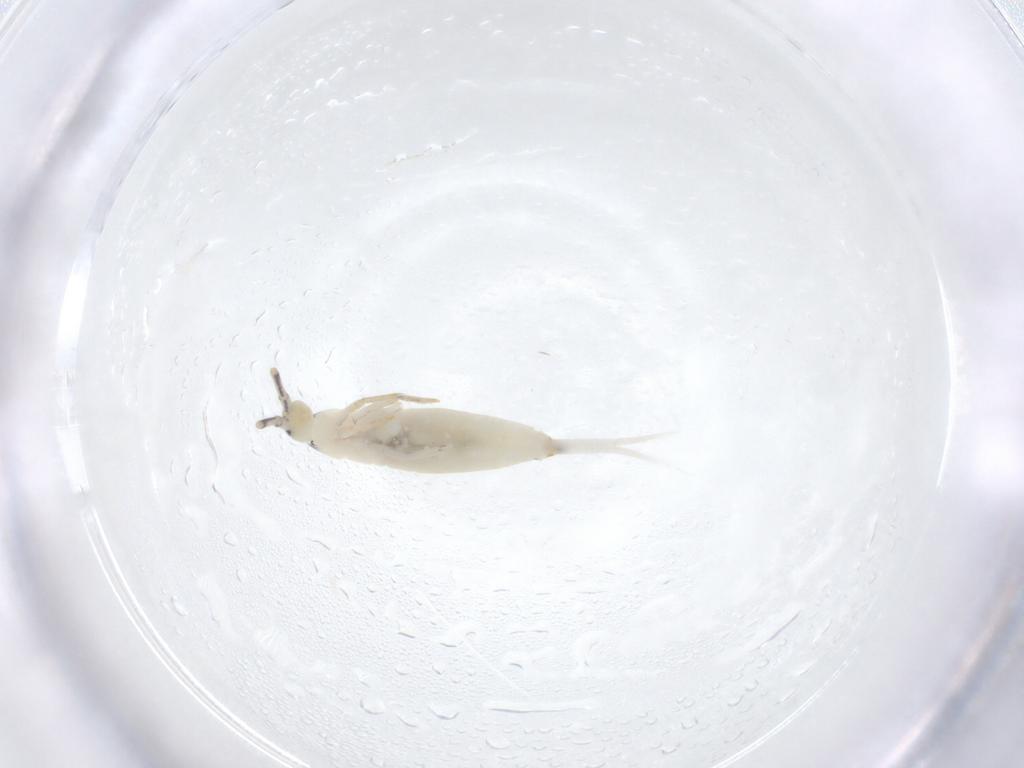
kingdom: Animalia
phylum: Arthropoda
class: Collembola
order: Entomobryomorpha
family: Entomobryidae
